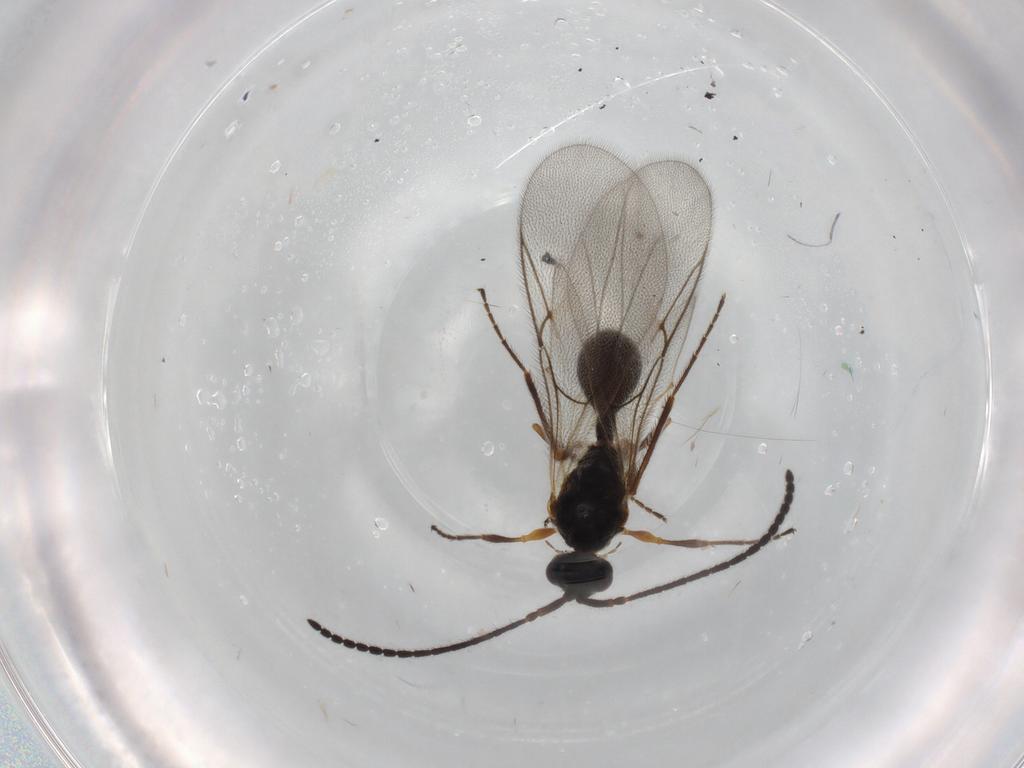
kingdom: Animalia
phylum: Arthropoda
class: Insecta
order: Hymenoptera
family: Diapriidae
